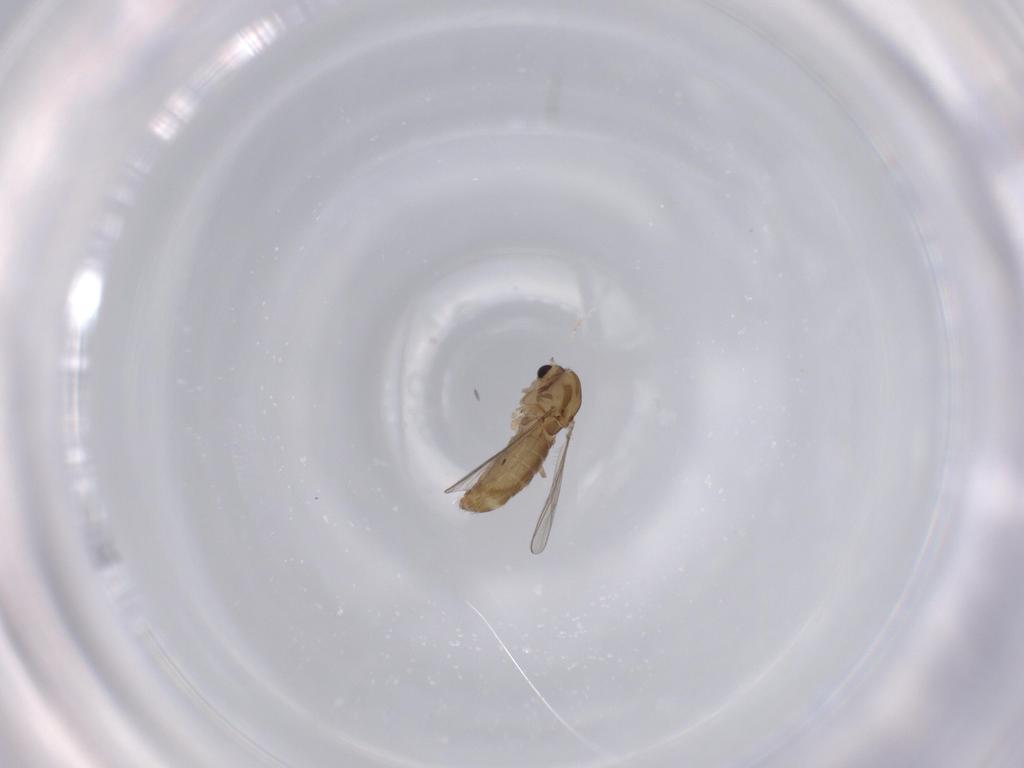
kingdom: Animalia
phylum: Arthropoda
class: Insecta
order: Diptera
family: Chironomidae
